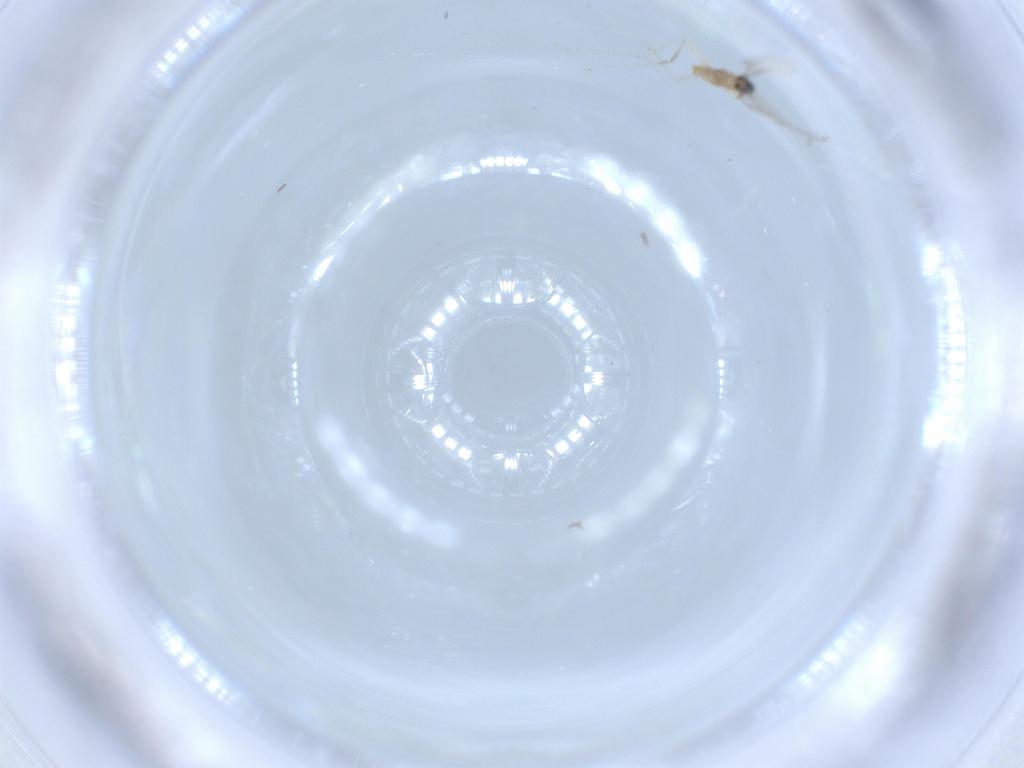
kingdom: Animalia
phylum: Arthropoda
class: Insecta
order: Diptera
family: Cecidomyiidae
